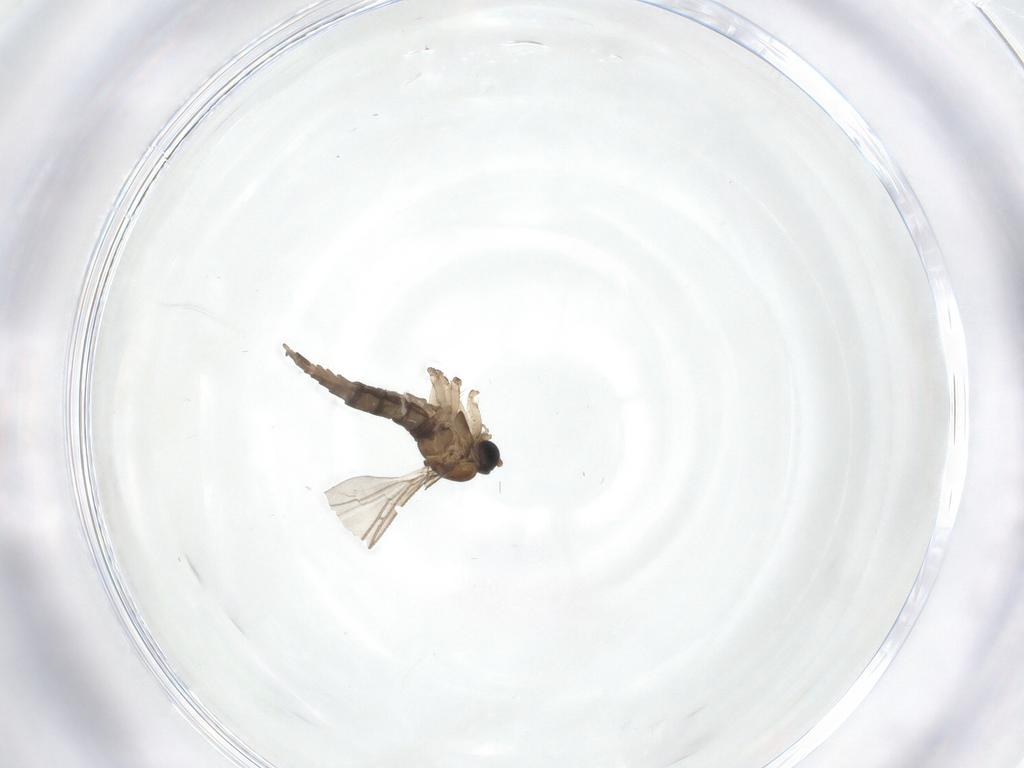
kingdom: Animalia
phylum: Arthropoda
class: Insecta
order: Diptera
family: Sciaridae
